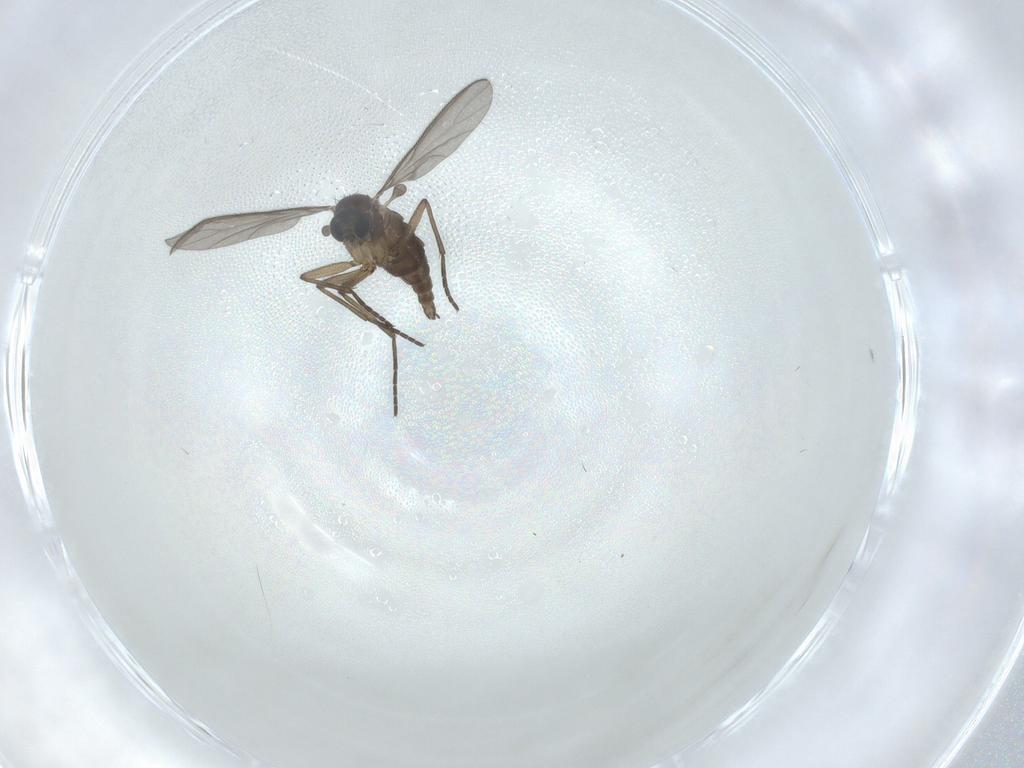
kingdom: Animalia
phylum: Arthropoda
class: Insecta
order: Diptera
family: Sciaridae
